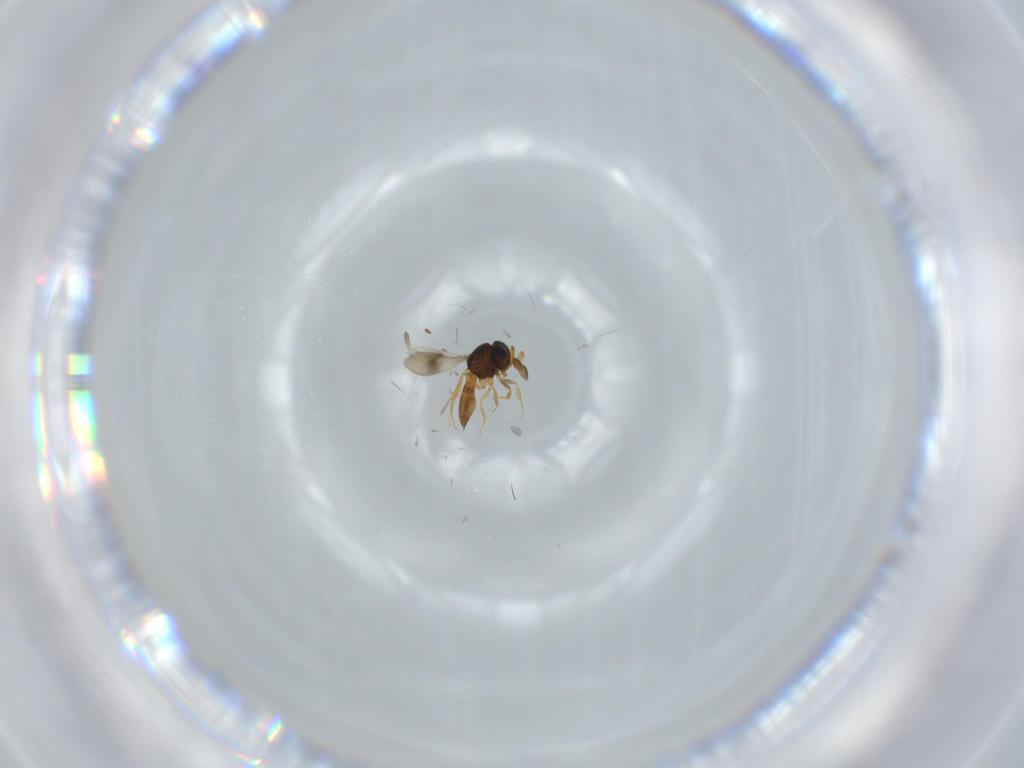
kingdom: Animalia
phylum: Arthropoda
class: Insecta
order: Hymenoptera
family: Scelionidae
